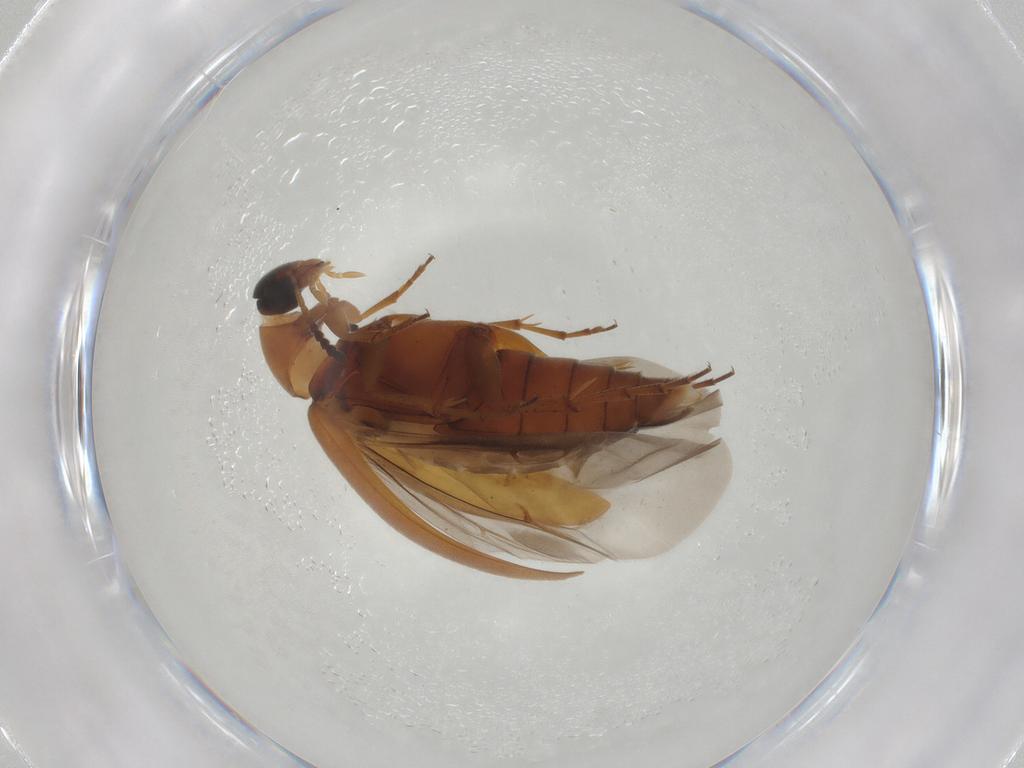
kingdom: Animalia
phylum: Arthropoda
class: Insecta
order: Coleoptera
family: Scraptiidae
